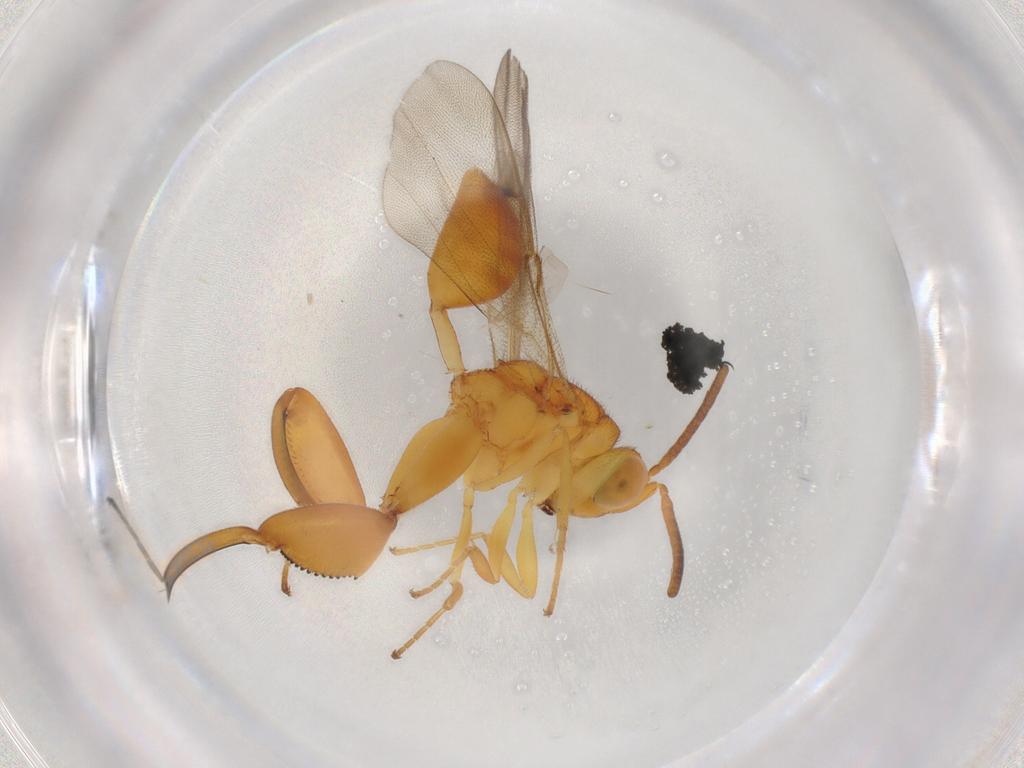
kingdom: Animalia
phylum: Arthropoda
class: Insecta
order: Hymenoptera
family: Chalcididae
